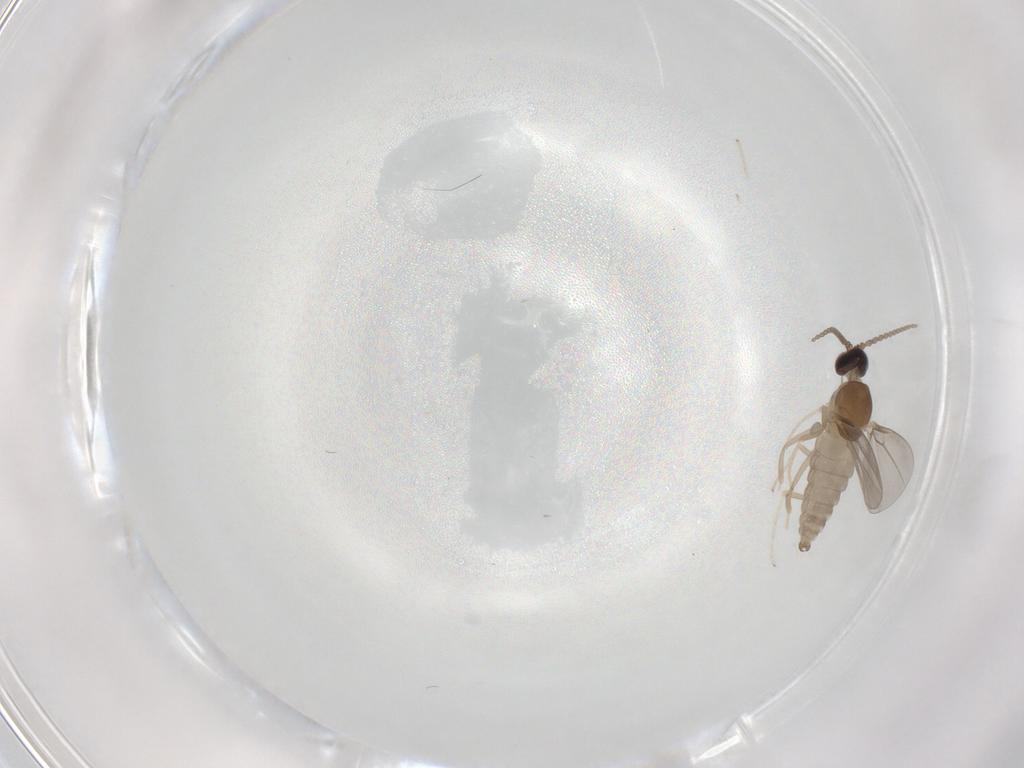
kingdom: Animalia
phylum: Arthropoda
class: Insecta
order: Diptera
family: Cecidomyiidae
